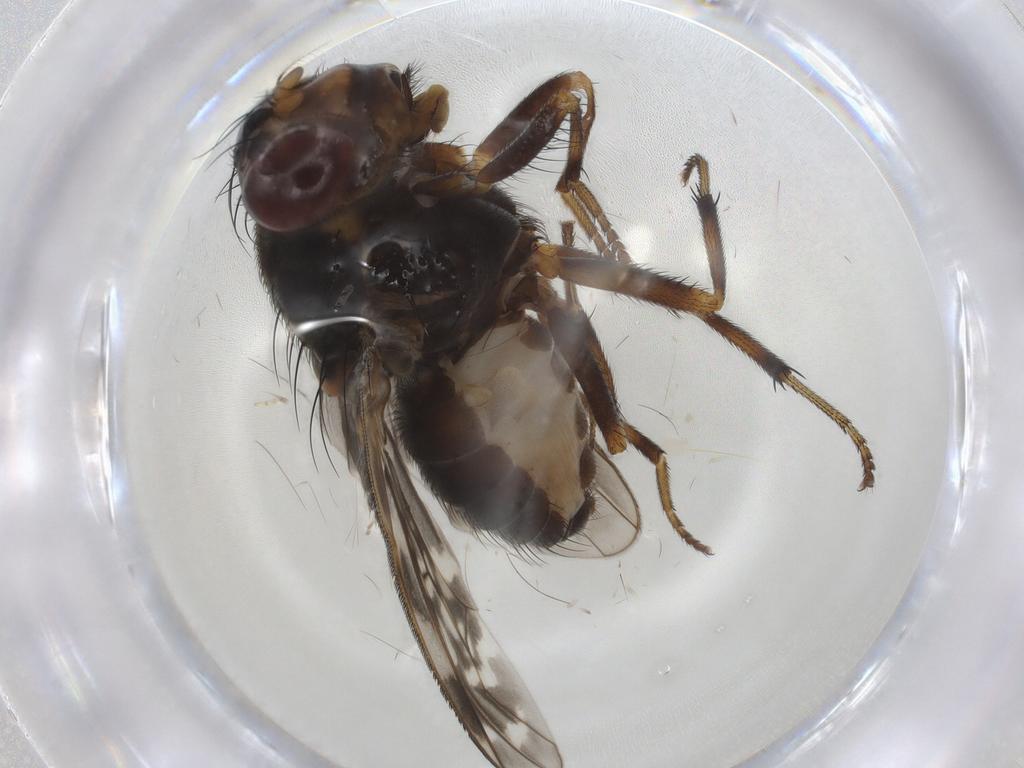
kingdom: Animalia
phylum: Arthropoda
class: Insecta
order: Diptera
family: Lauxaniidae
